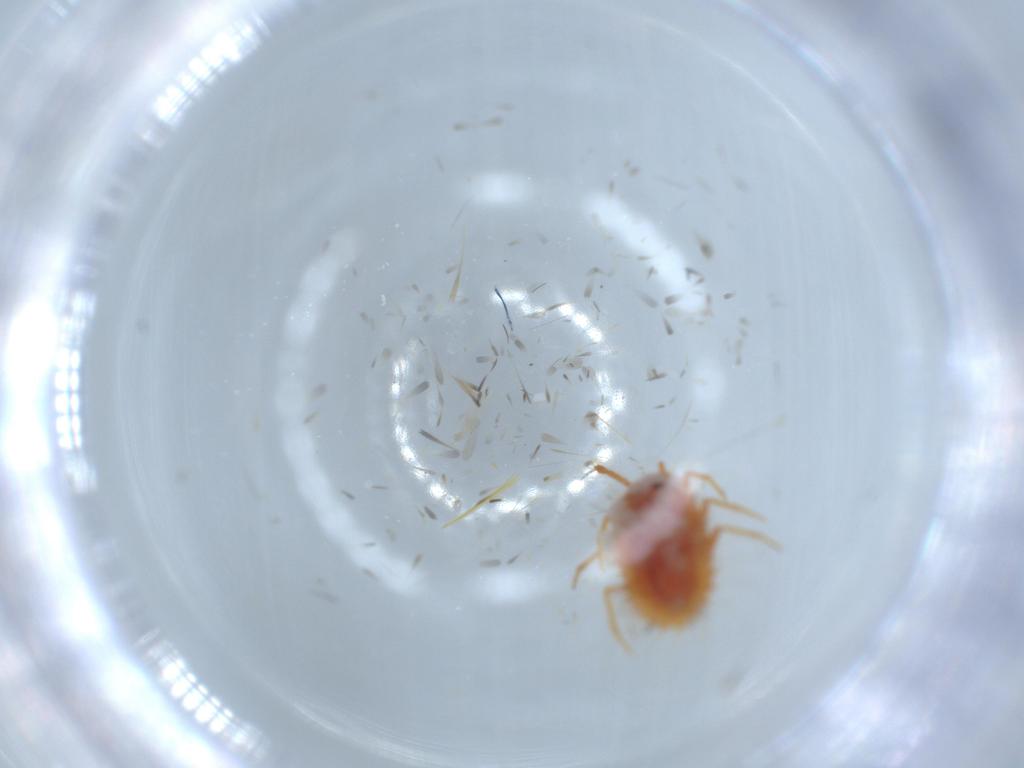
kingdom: Animalia
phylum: Arthropoda
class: Insecta
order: Hemiptera
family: Coccoidea_incertae_sedis
